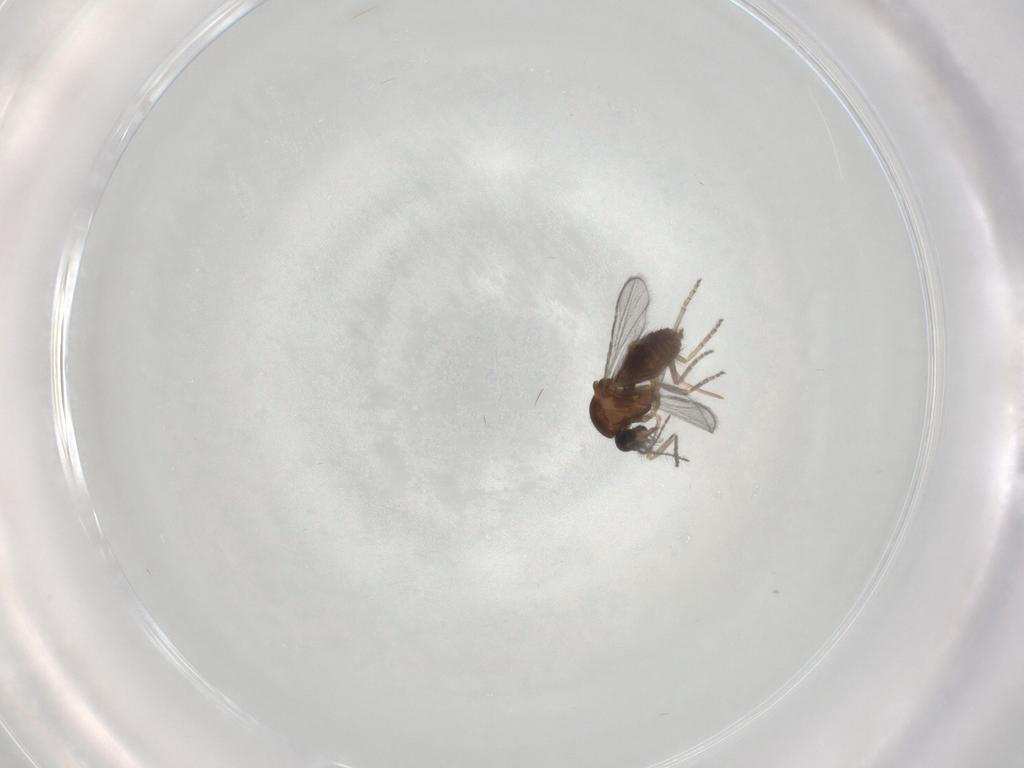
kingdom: Animalia
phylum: Arthropoda
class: Insecta
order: Diptera
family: Ceratopogonidae
